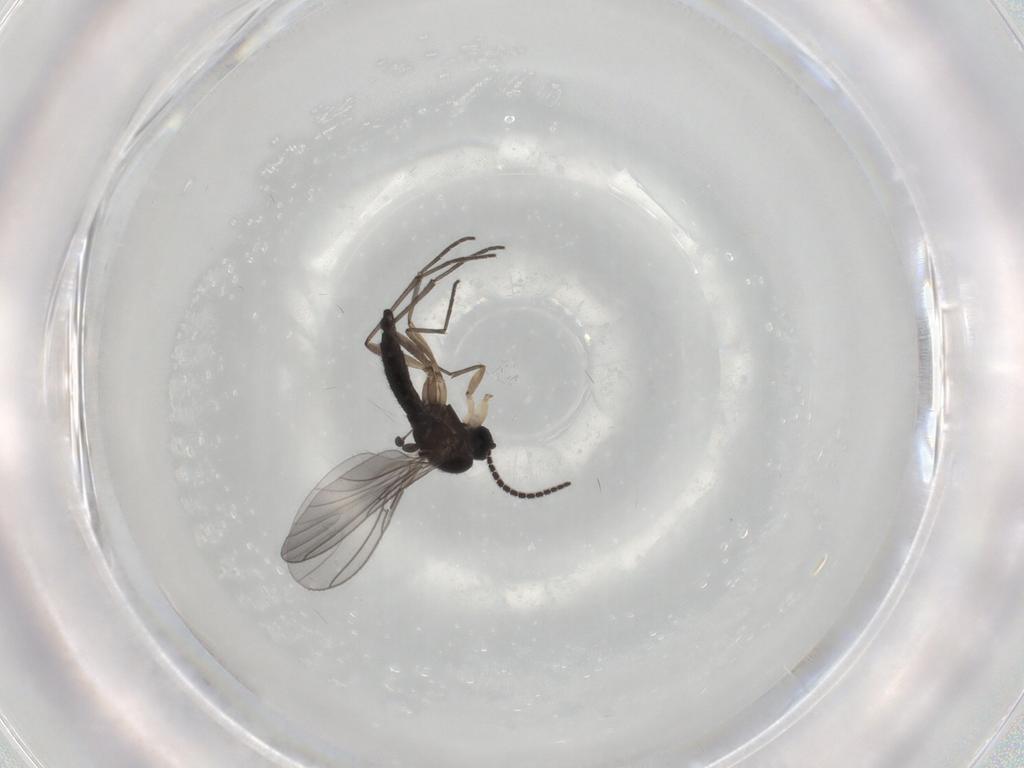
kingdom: Animalia
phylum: Arthropoda
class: Insecta
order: Diptera
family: Sciaridae
